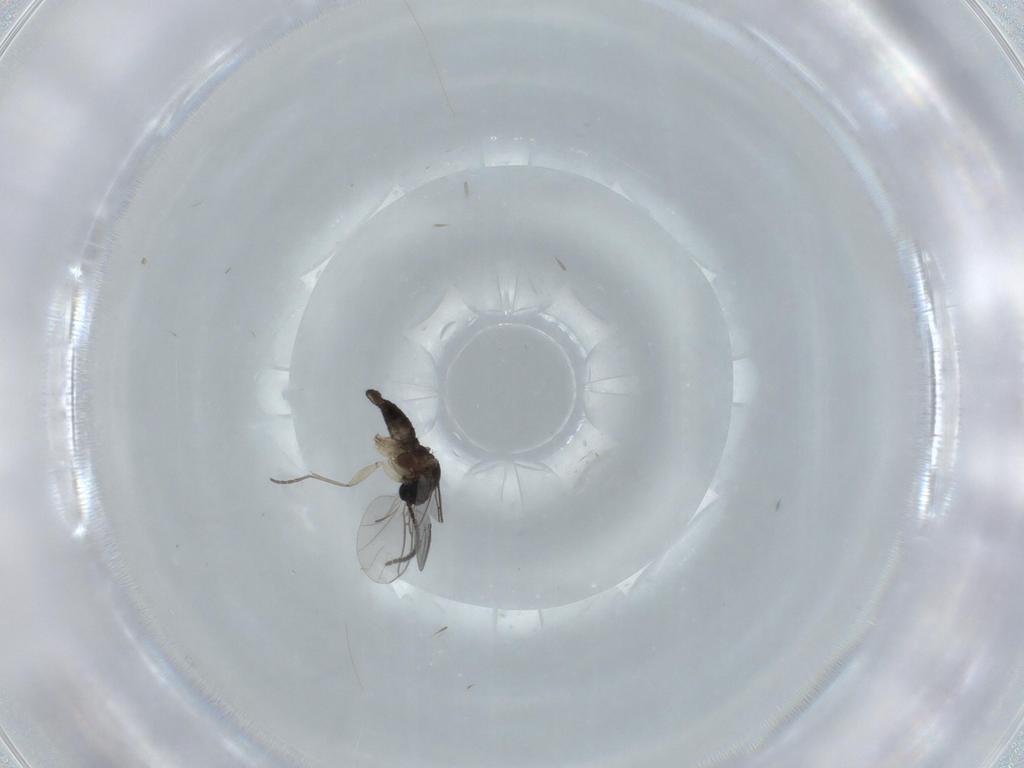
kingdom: Animalia
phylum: Arthropoda
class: Insecta
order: Diptera
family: Sciaridae
